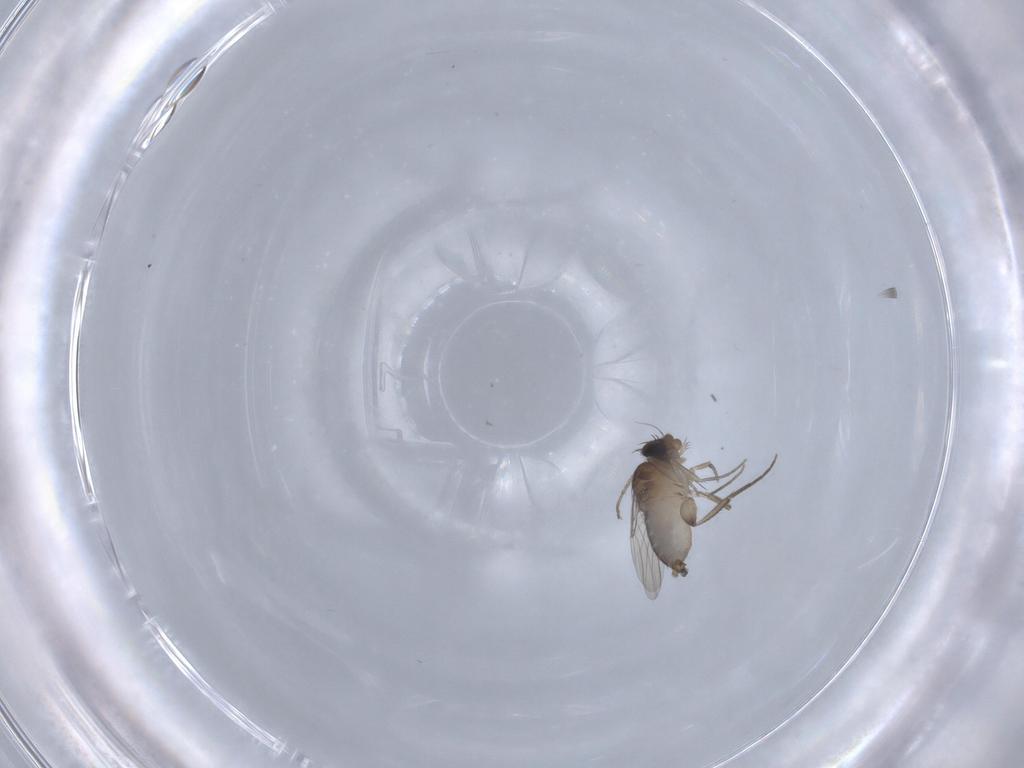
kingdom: Animalia
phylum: Arthropoda
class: Insecta
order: Diptera
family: Phoridae
